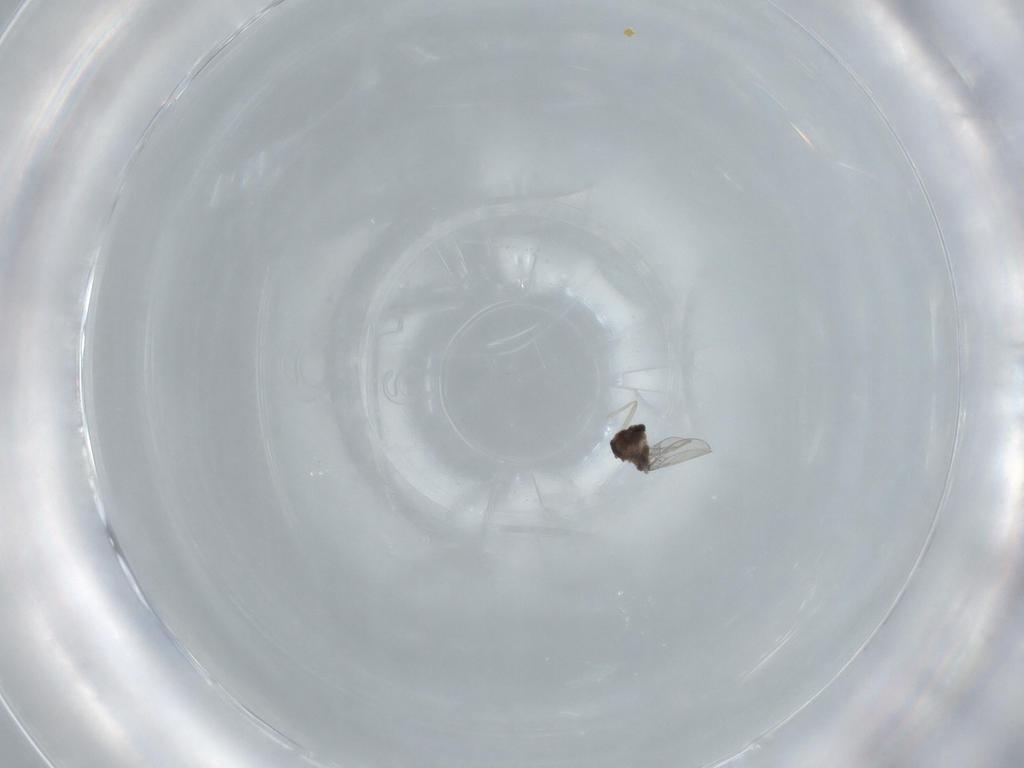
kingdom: Animalia
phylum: Arthropoda
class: Insecta
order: Diptera
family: Cecidomyiidae
